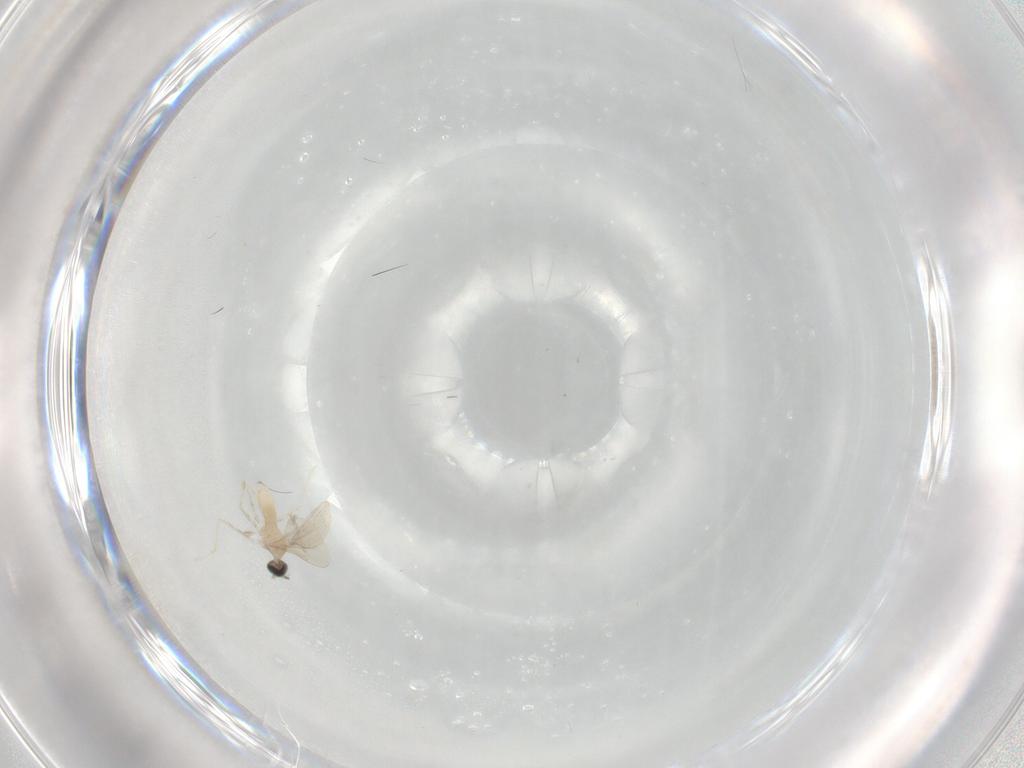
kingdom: Animalia
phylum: Arthropoda
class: Insecta
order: Diptera
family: Cecidomyiidae
